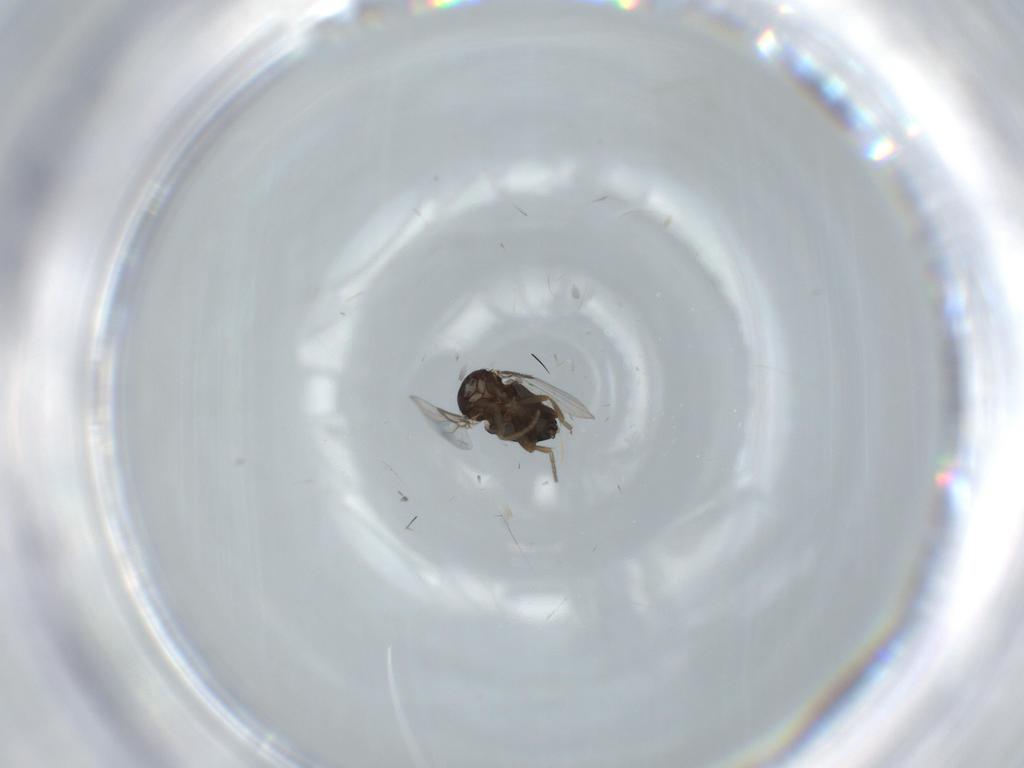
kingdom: Animalia
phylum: Arthropoda
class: Insecta
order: Diptera
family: Phoridae
